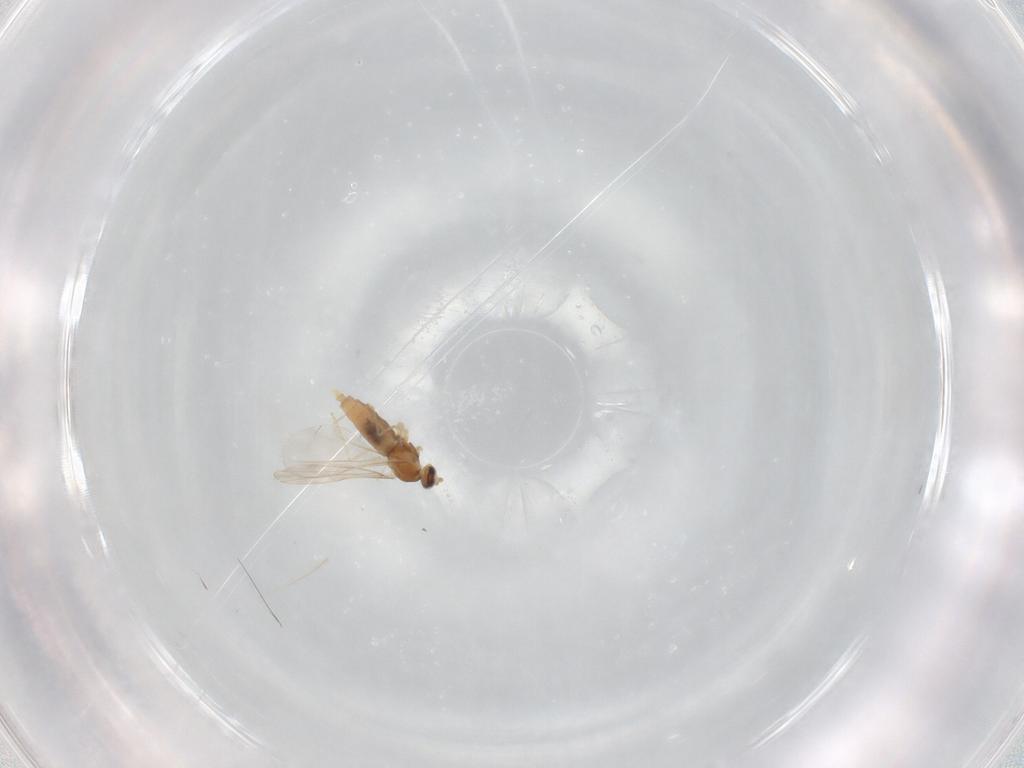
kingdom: Animalia
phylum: Arthropoda
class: Insecta
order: Diptera
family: Cecidomyiidae
